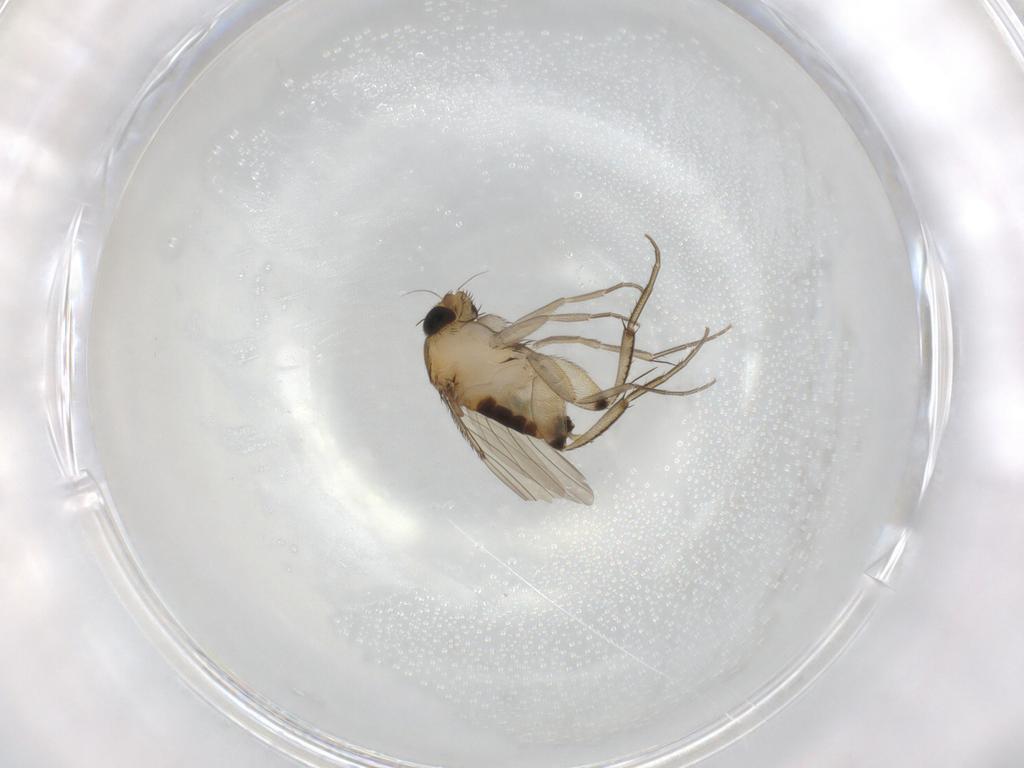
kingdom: Animalia
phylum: Arthropoda
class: Insecta
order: Diptera
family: Phoridae
